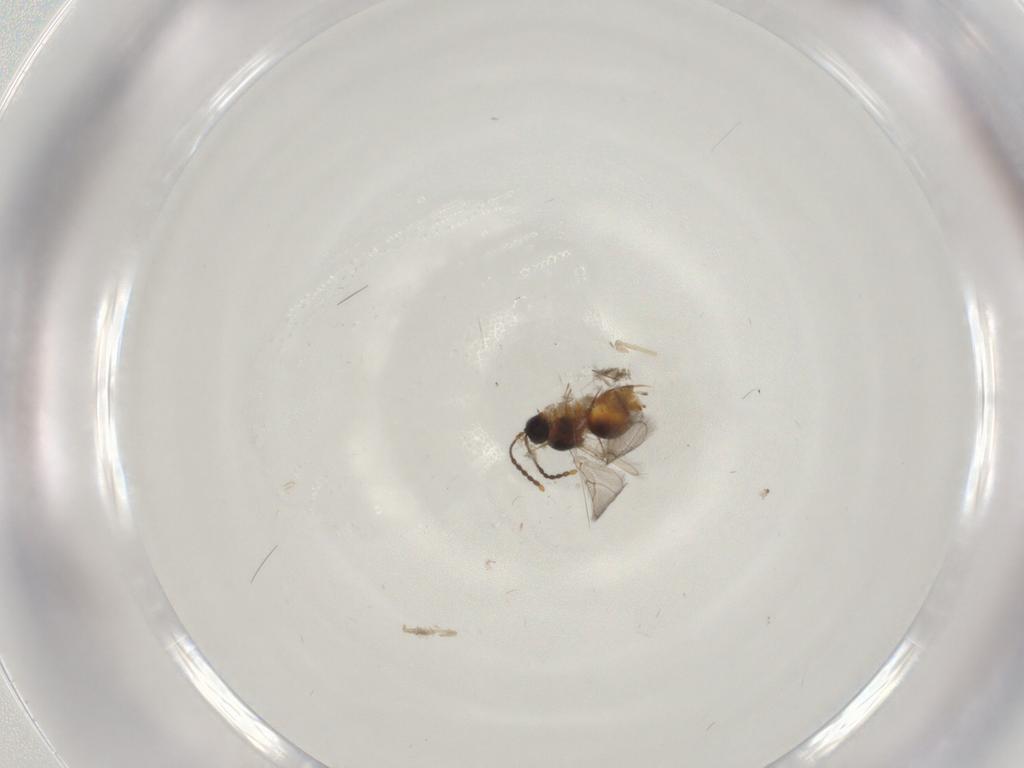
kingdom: Animalia
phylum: Arthropoda
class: Insecta
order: Hymenoptera
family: Figitidae
